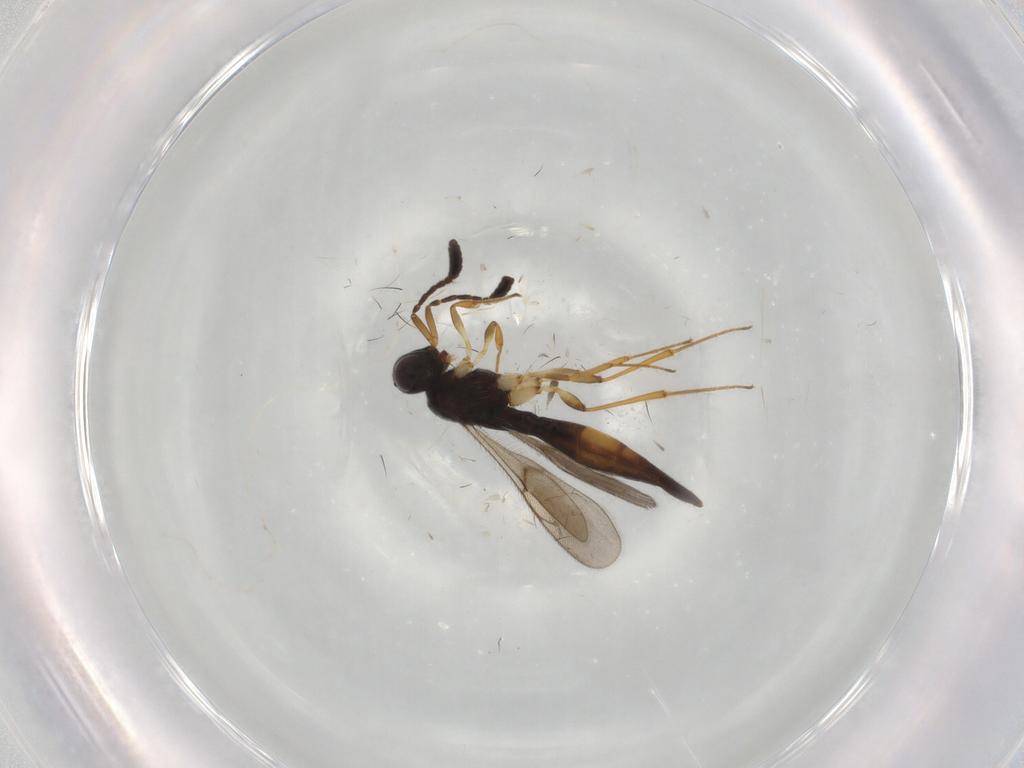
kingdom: Animalia
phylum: Arthropoda
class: Insecta
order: Hymenoptera
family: Scelionidae
